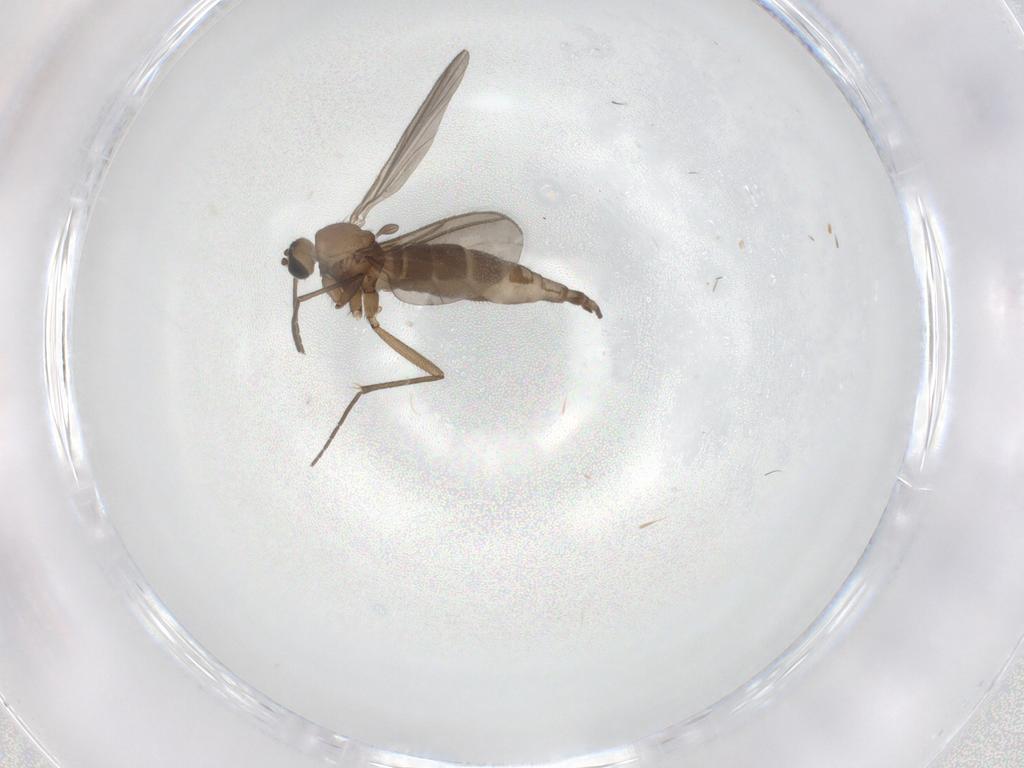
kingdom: Animalia
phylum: Arthropoda
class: Insecta
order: Diptera
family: Sciaridae
